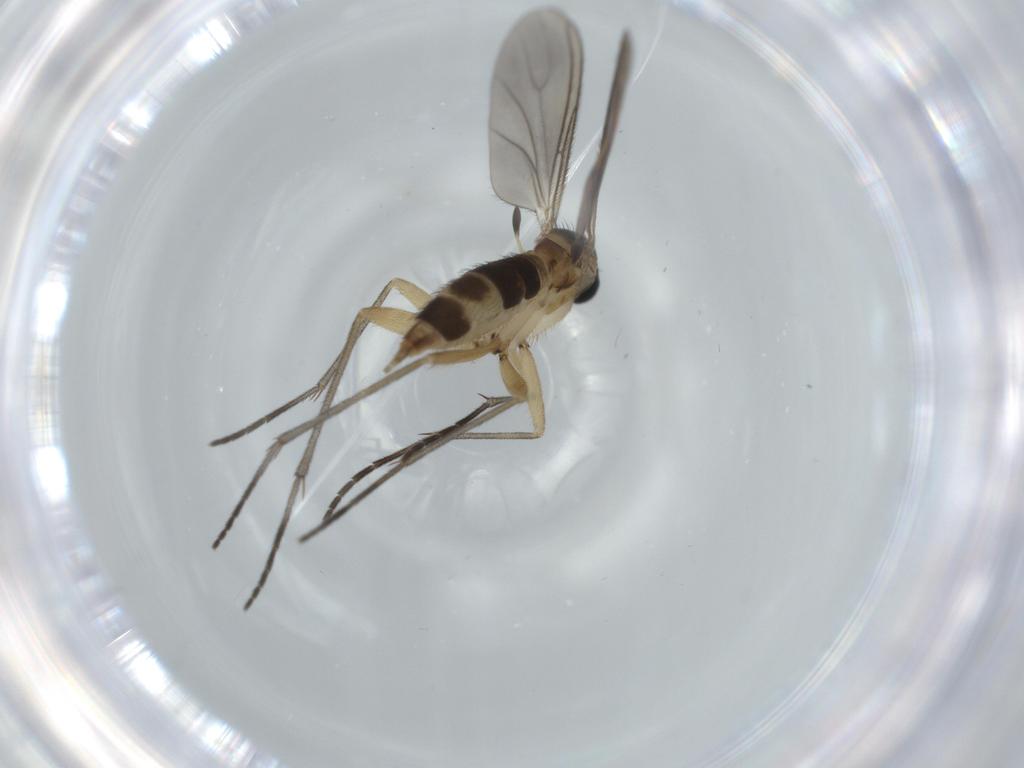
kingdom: Animalia
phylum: Arthropoda
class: Insecta
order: Diptera
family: Sciaridae
